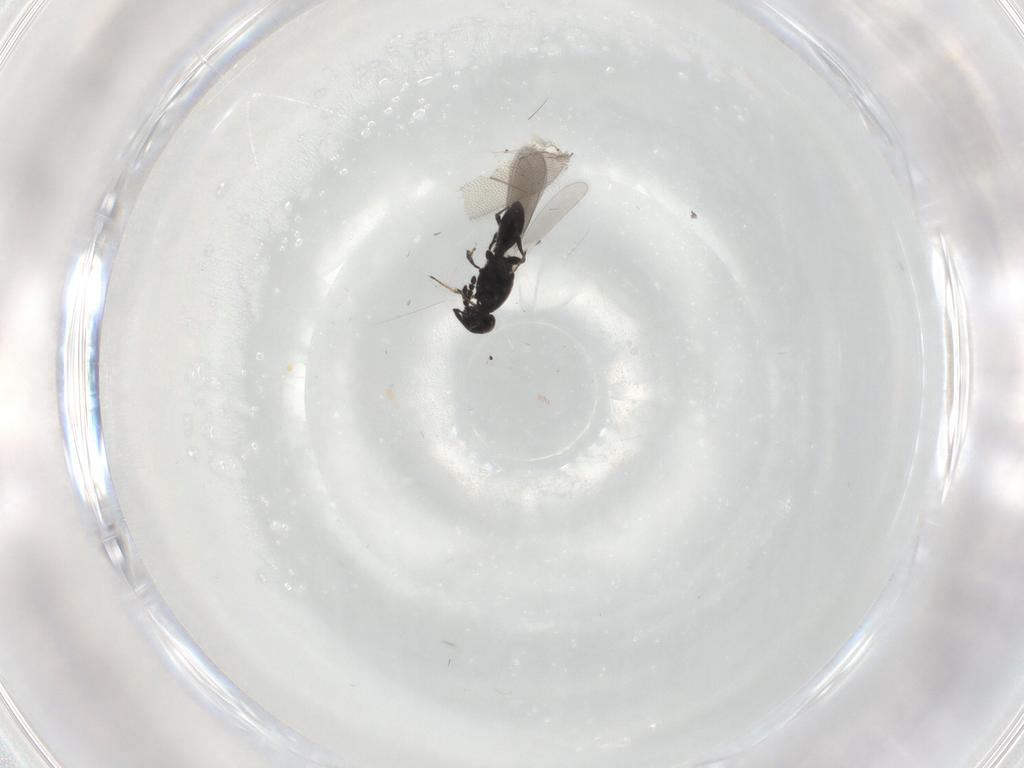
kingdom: Animalia
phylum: Arthropoda
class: Insecta
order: Hymenoptera
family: Platygastridae
